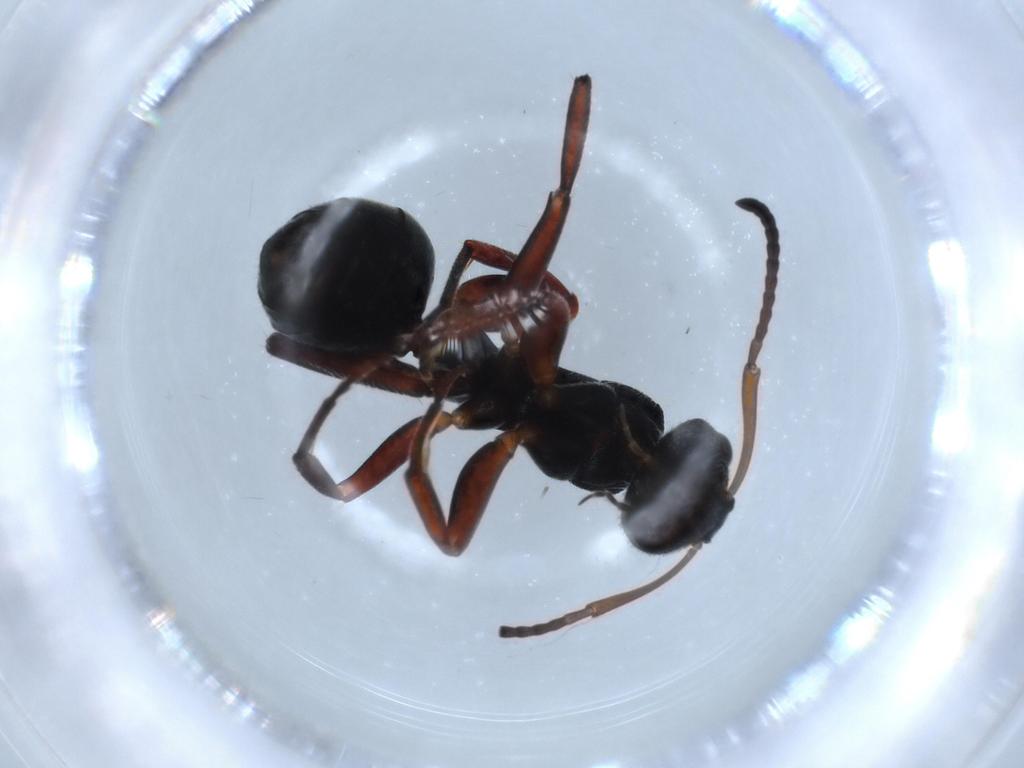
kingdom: Animalia
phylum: Arthropoda
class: Insecta
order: Hymenoptera
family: Formicidae
